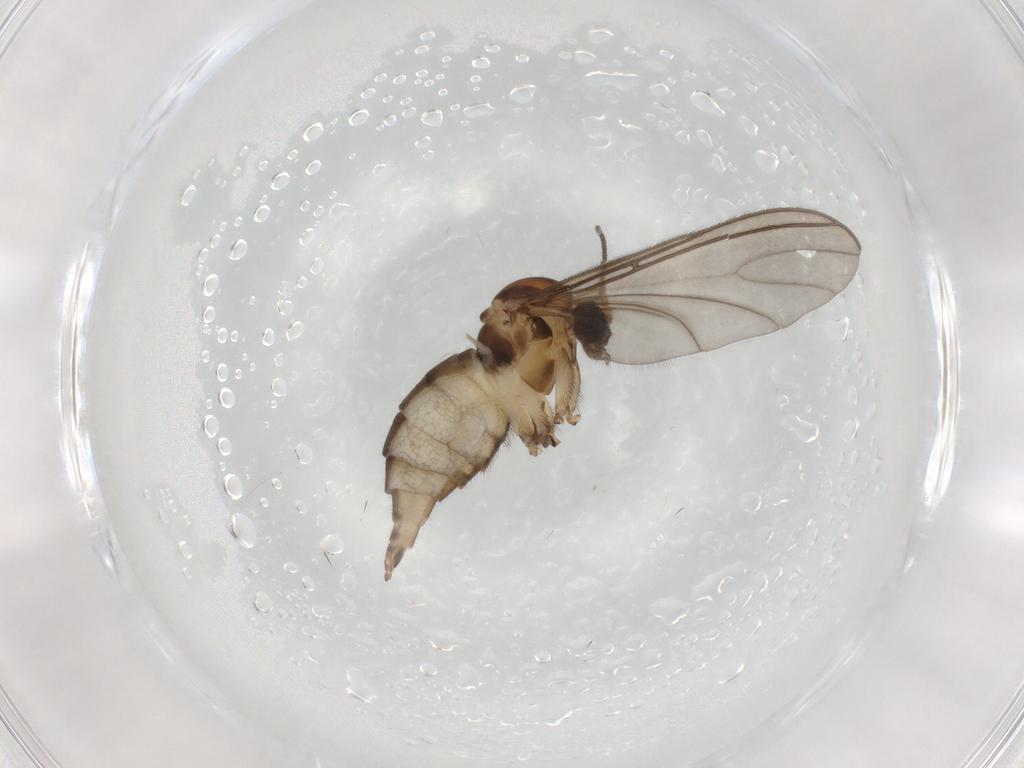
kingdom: Animalia
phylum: Arthropoda
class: Insecta
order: Diptera
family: Sciaridae
